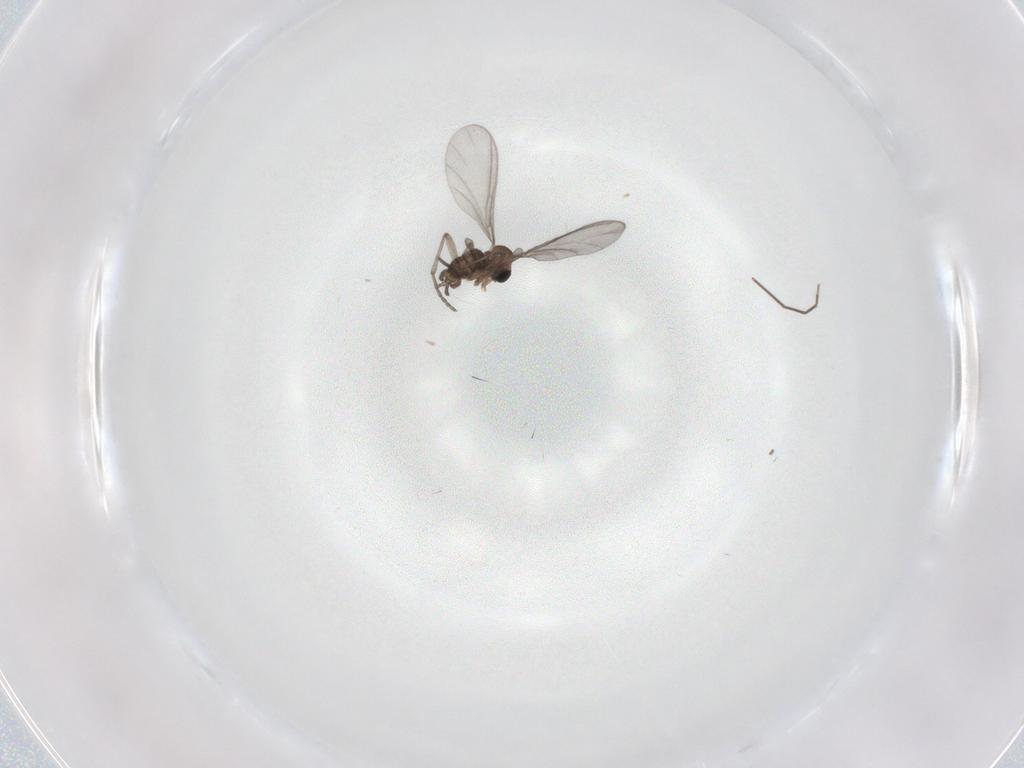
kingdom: Animalia
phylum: Arthropoda
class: Insecta
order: Diptera
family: Sciaridae
